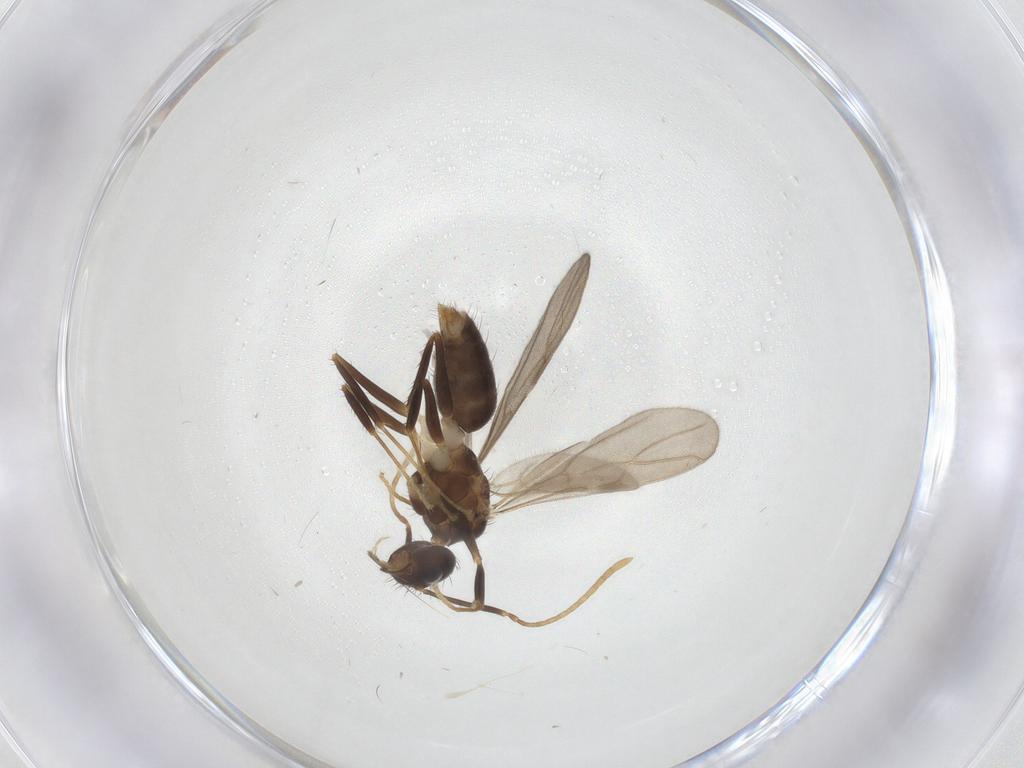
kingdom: Animalia
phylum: Arthropoda
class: Insecta
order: Hymenoptera
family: Formicidae
